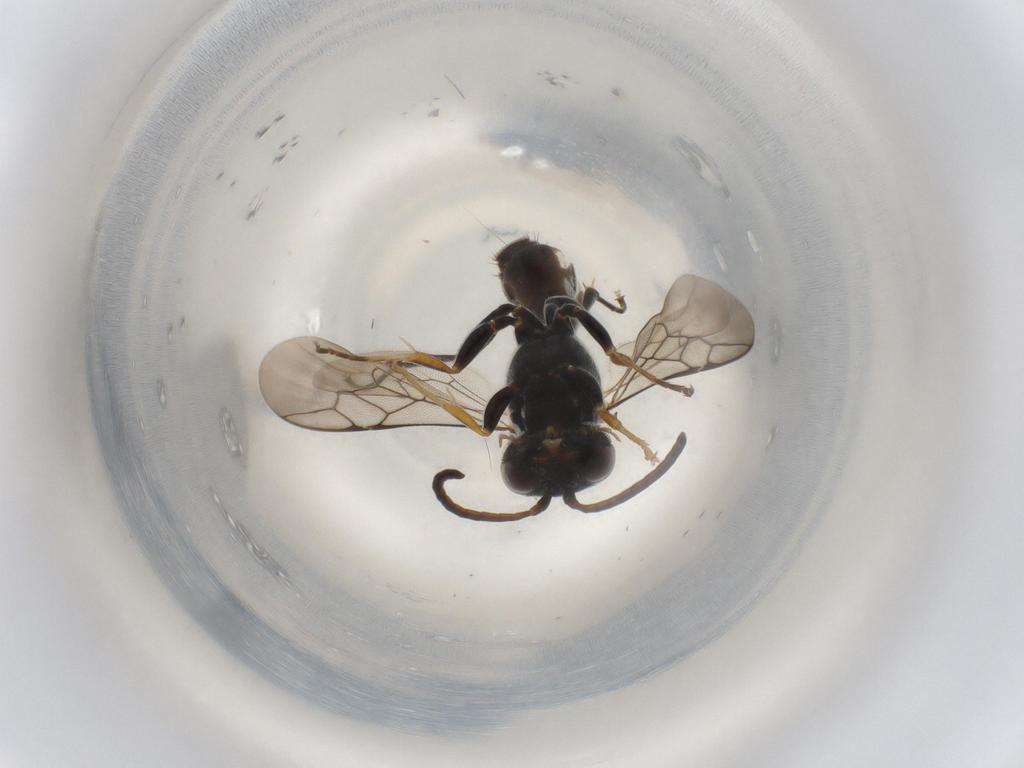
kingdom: Animalia
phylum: Arthropoda
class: Insecta
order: Hymenoptera
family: Crabronidae
